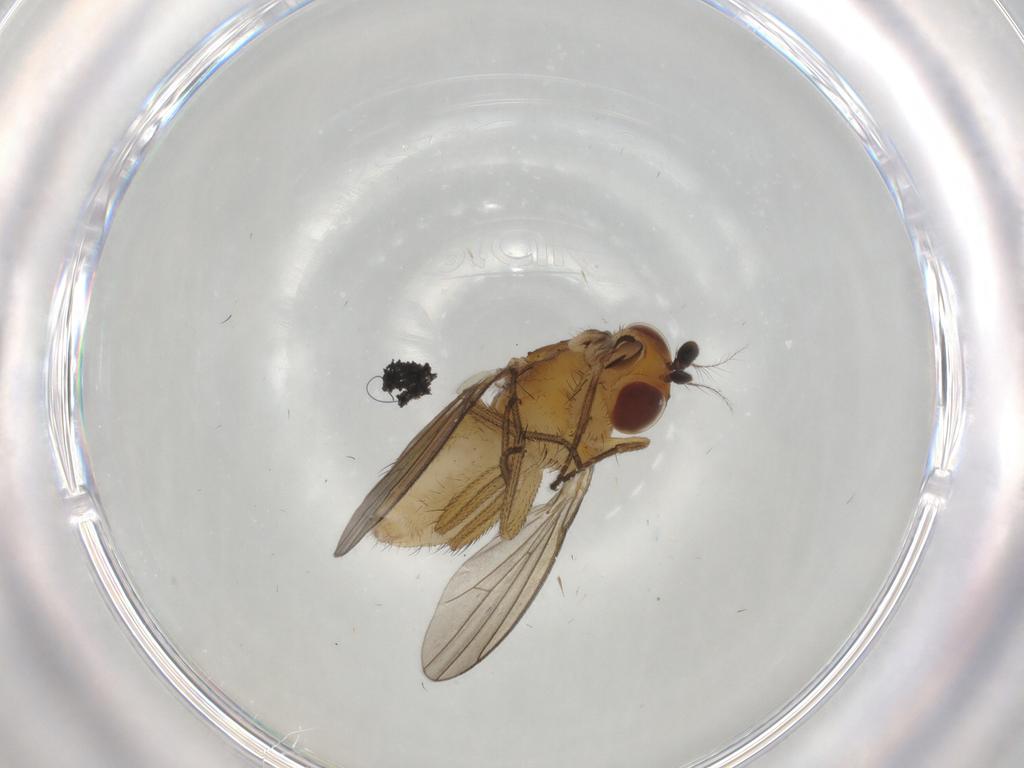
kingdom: Animalia
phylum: Arthropoda
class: Insecta
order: Diptera
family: Lauxaniidae
